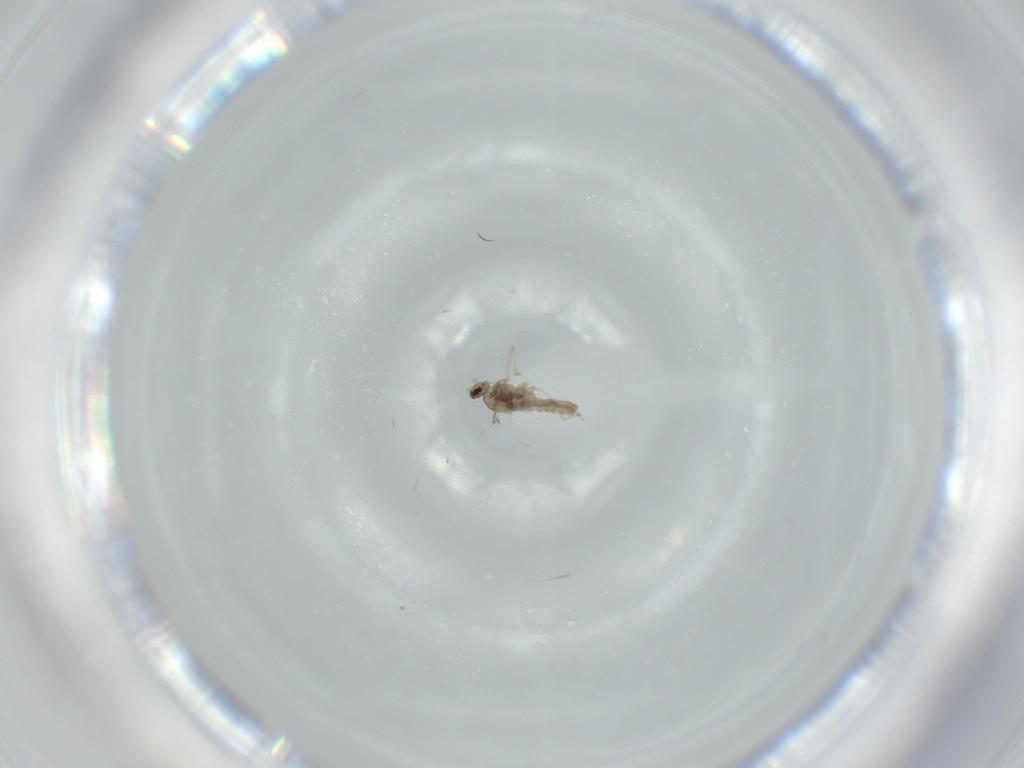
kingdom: Animalia
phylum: Arthropoda
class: Insecta
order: Diptera
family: Cecidomyiidae
